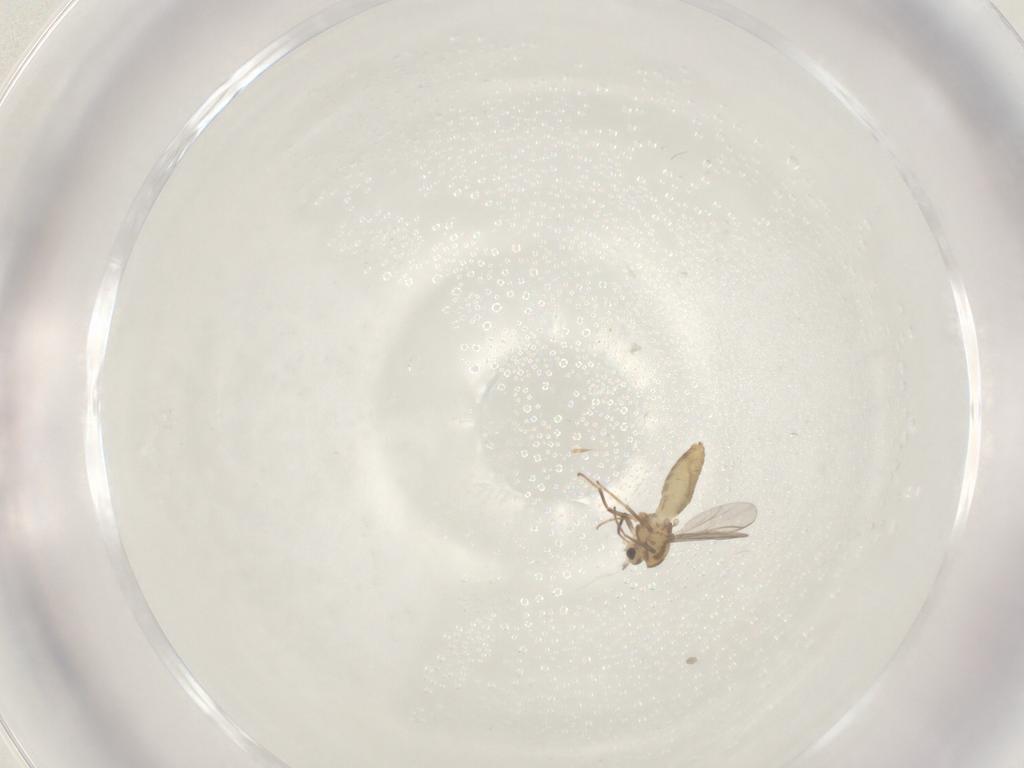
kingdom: Animalia
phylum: Arthropoda
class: Insecta
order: Diptera
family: Chironomidae
